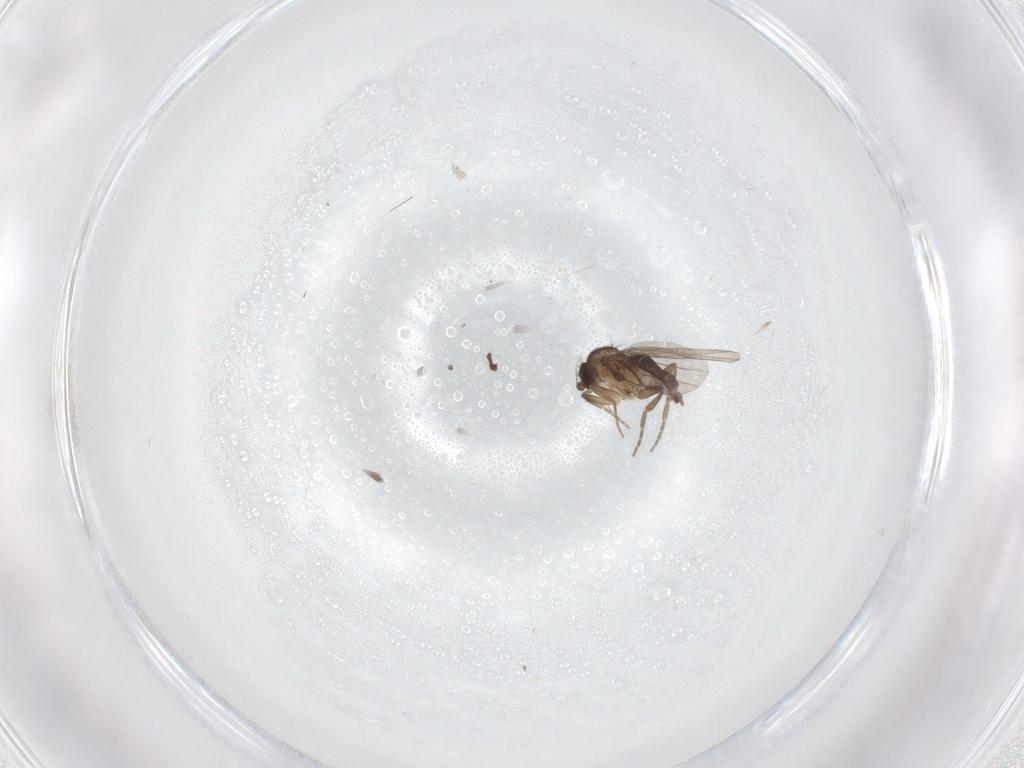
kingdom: Animalia
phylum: Arthropoda
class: Insecta
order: Diptera
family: Phoridae
